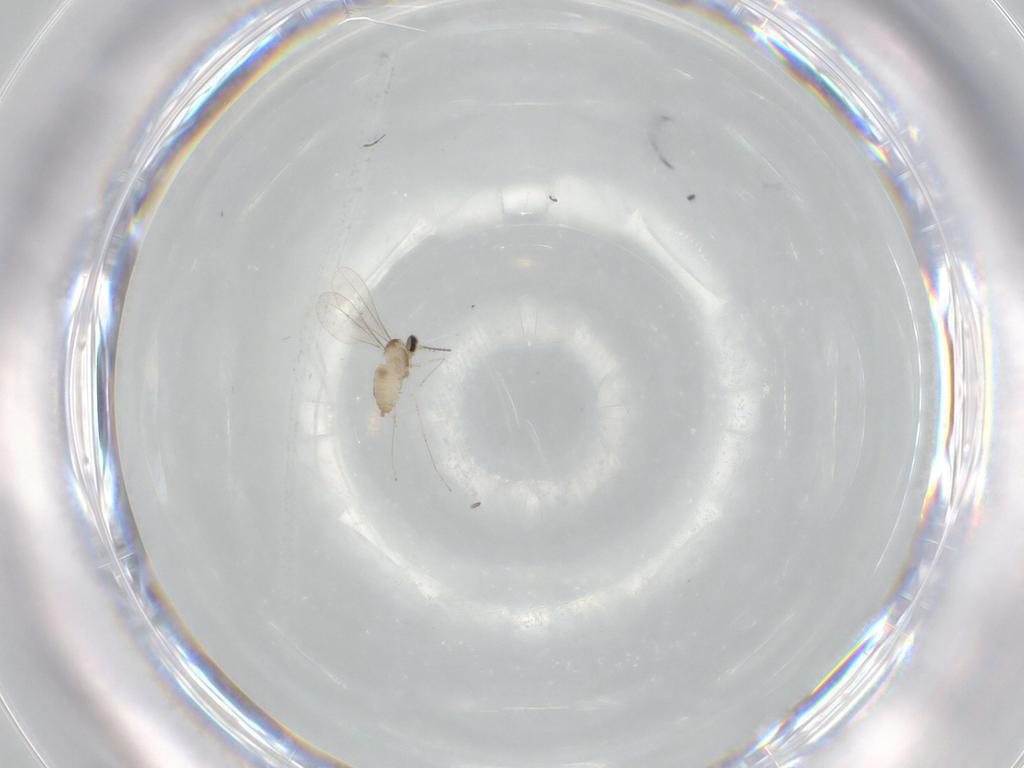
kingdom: Animalia
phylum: Arthropoda
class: Insecta
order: Diptera
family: Cecidomyiidae
